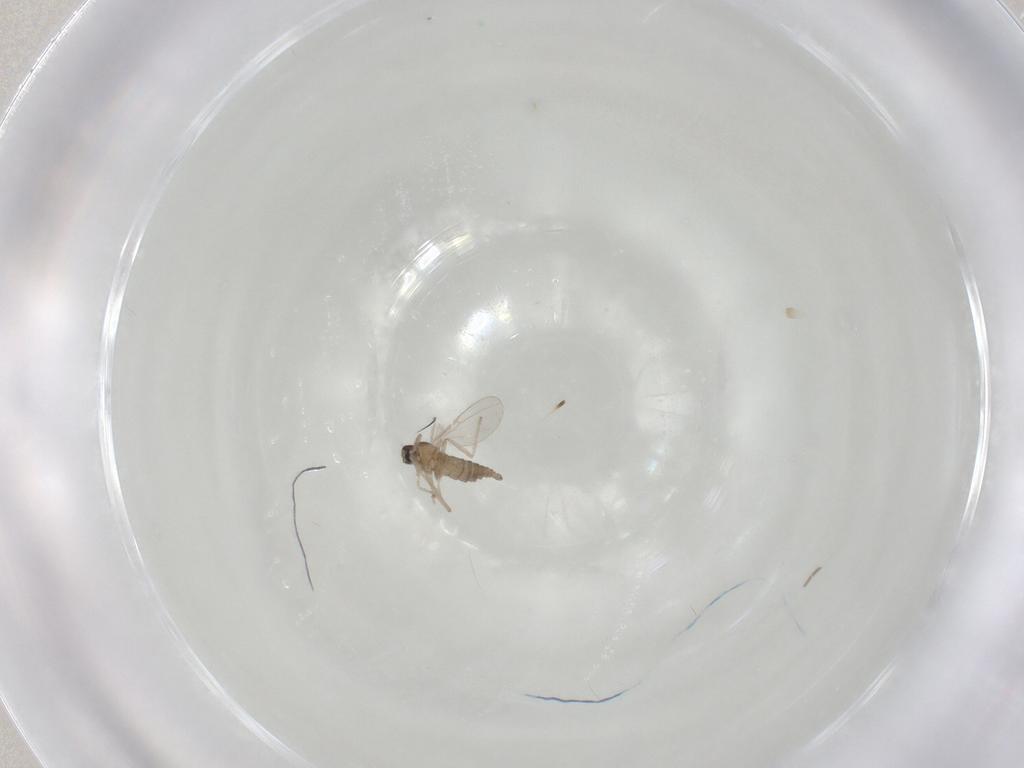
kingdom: Animalia
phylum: Arthropoda
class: Insecta
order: Diptera
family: Cecidomyiidae
